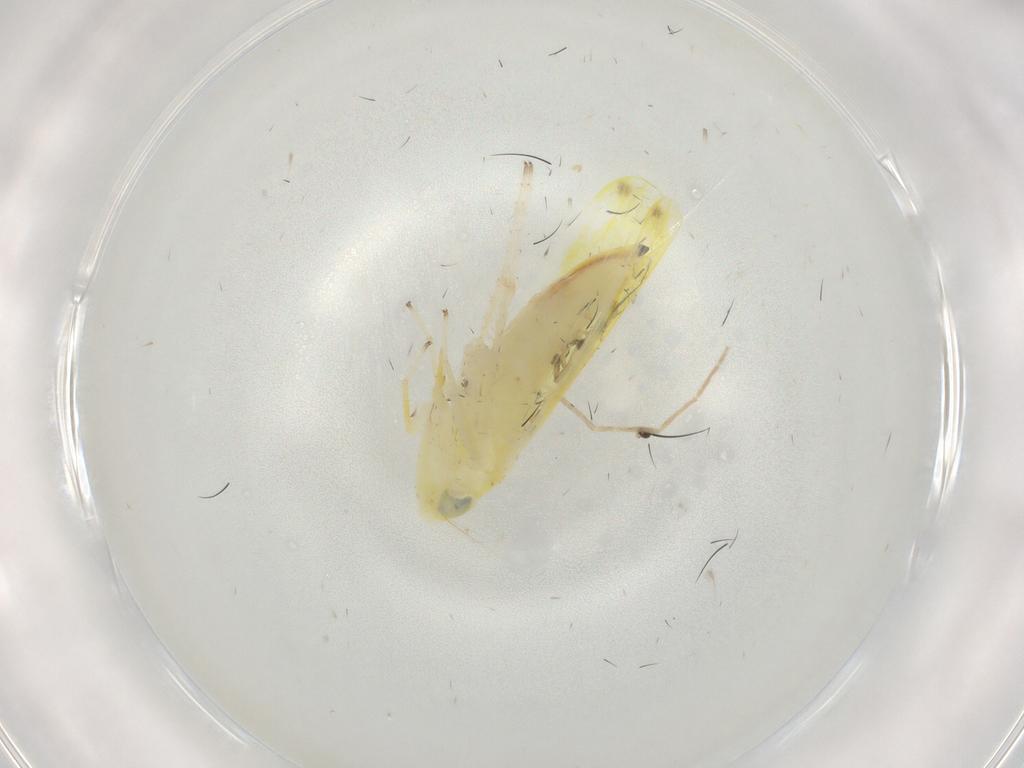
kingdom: Animalia
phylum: Arthropoda
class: Insecta
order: Hemiptera
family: Cicadellidae
